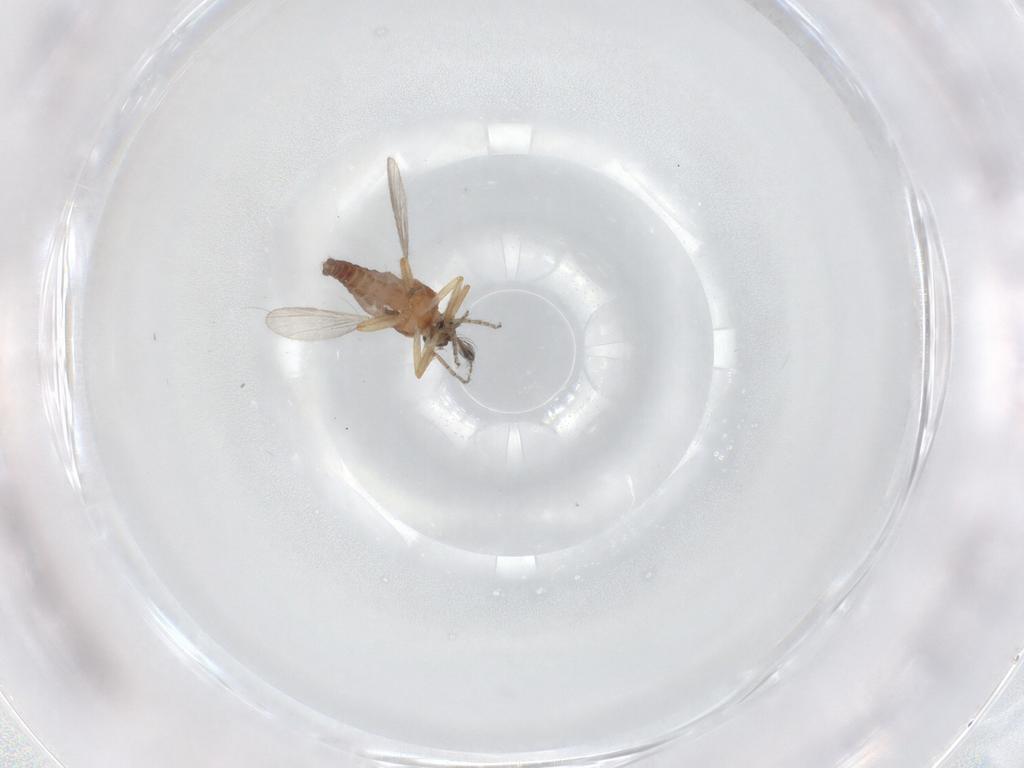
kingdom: Animalia
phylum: Arthropoda
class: Insecta
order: Diptera
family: Ceratopogonidae
